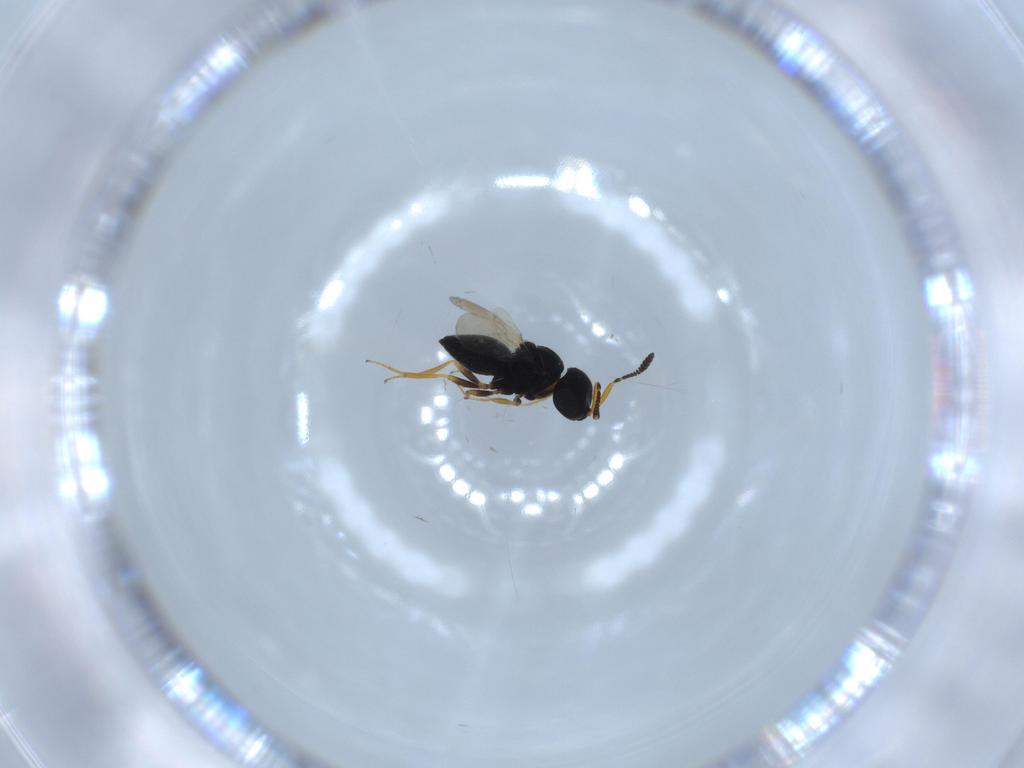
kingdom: Animalia
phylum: Arthropoda
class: Insecta
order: Hymenoptera
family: Scelionidae
